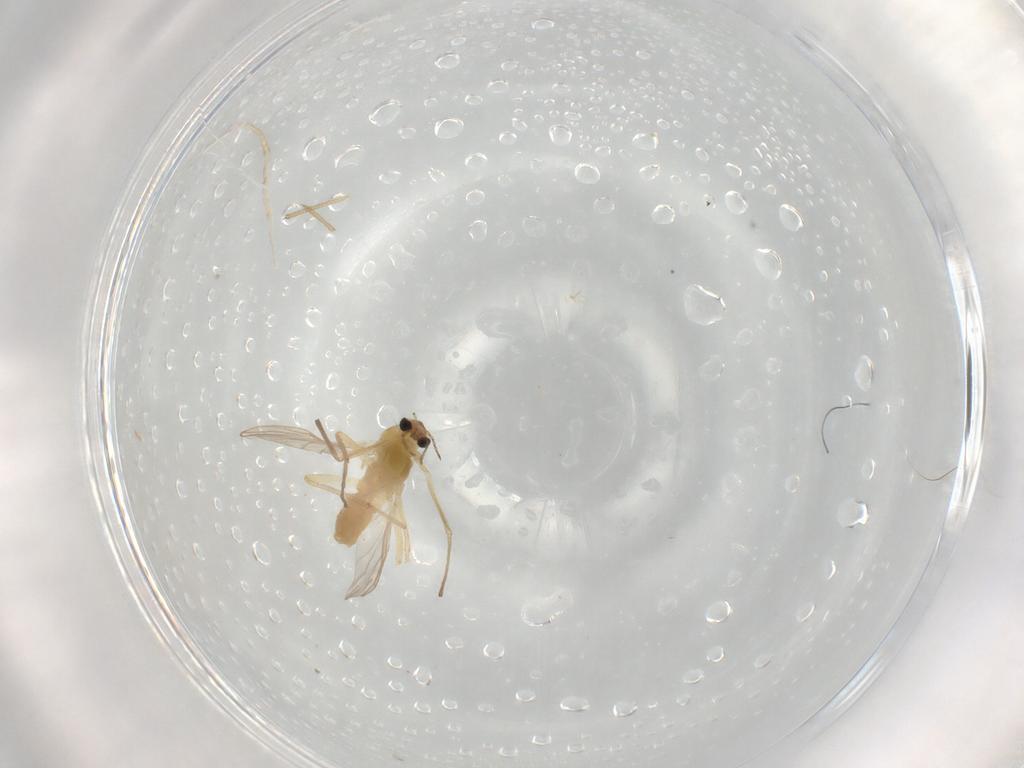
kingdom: Animalia
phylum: Arthropoda
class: Insecta
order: Diptera
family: Chironomidae
